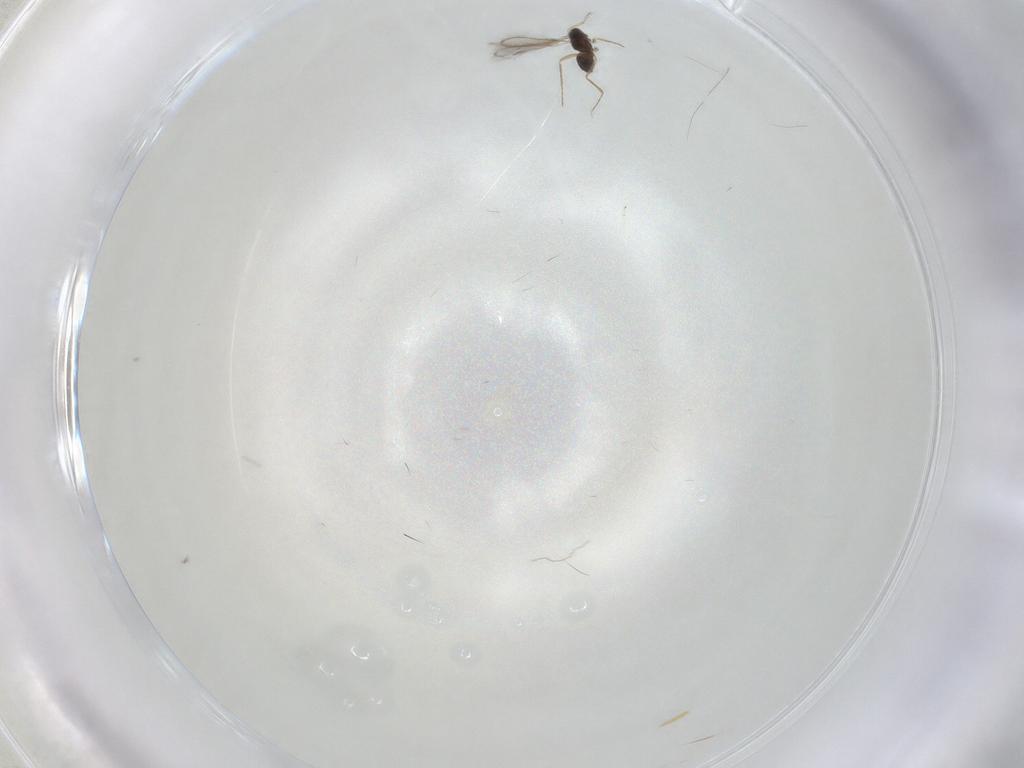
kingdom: Animalia
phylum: Arthropoda
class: Insecta
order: Hymenoptera
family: Mymaridae
